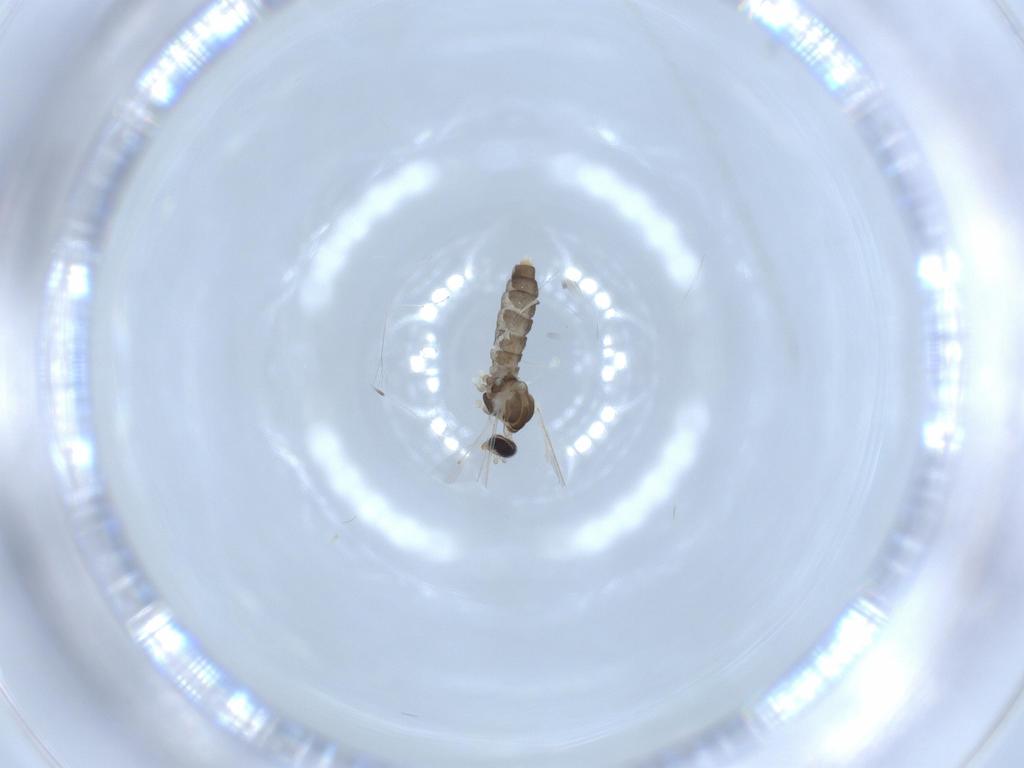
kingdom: Animalia
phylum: Arthropoda
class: Insecta
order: Diptera
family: Cecidomyiidae
